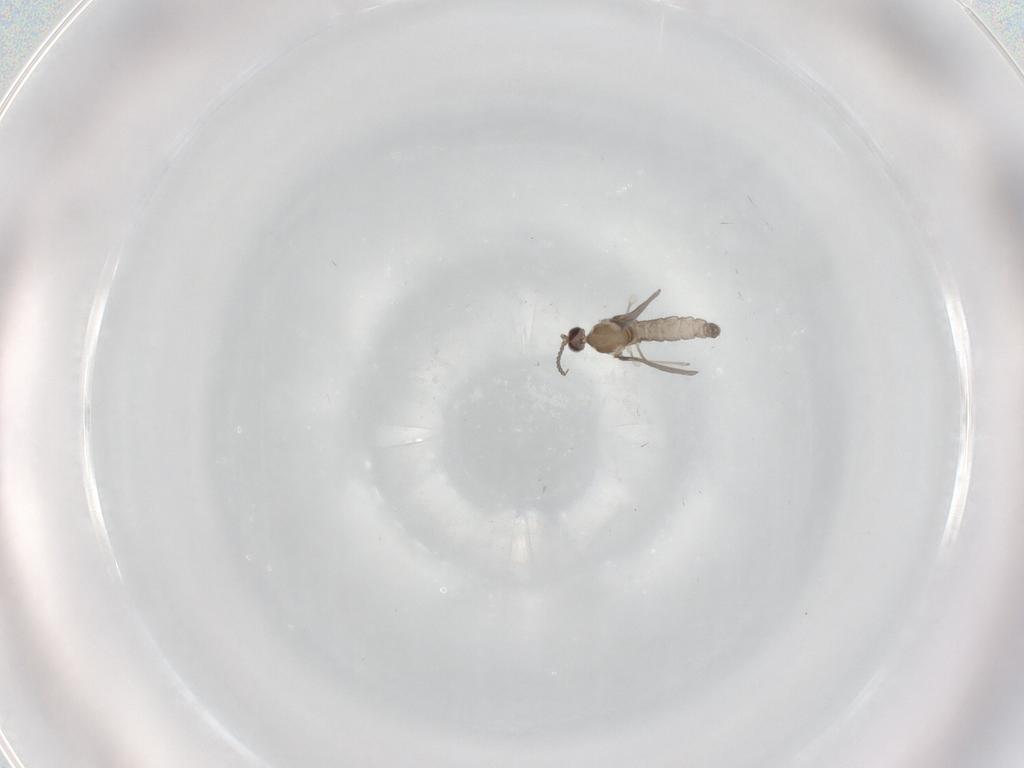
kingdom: Animalia
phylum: Arthropoda
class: Insecta
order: Diptera
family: Cecidomyiidae
